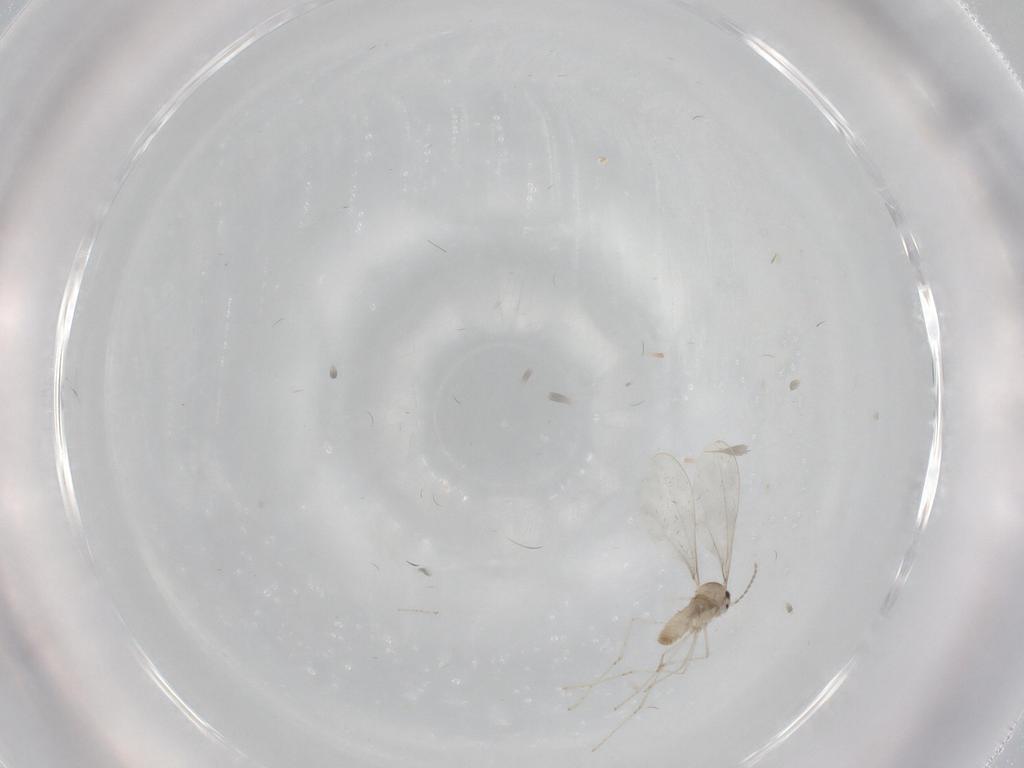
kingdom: Animalia
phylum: Arthropoda
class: Insecta
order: Diptera
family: Cecidomyiidae
